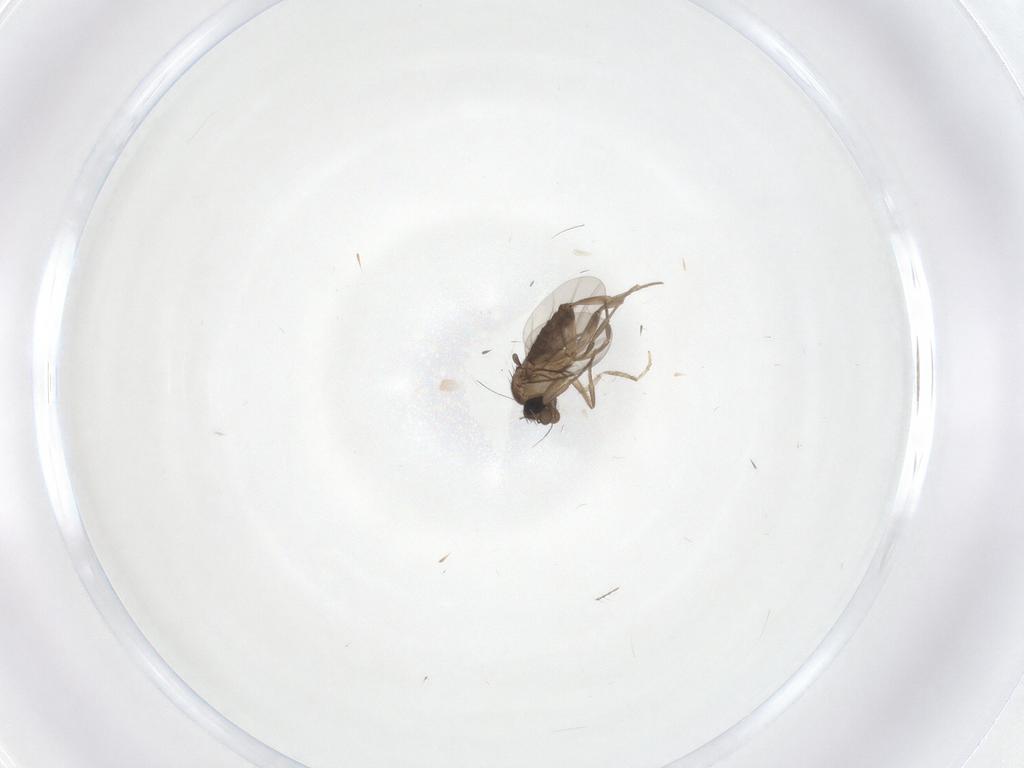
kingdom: Animalia
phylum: Arthropoda
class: Insecta
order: Diptera
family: Cecidomyiidae
